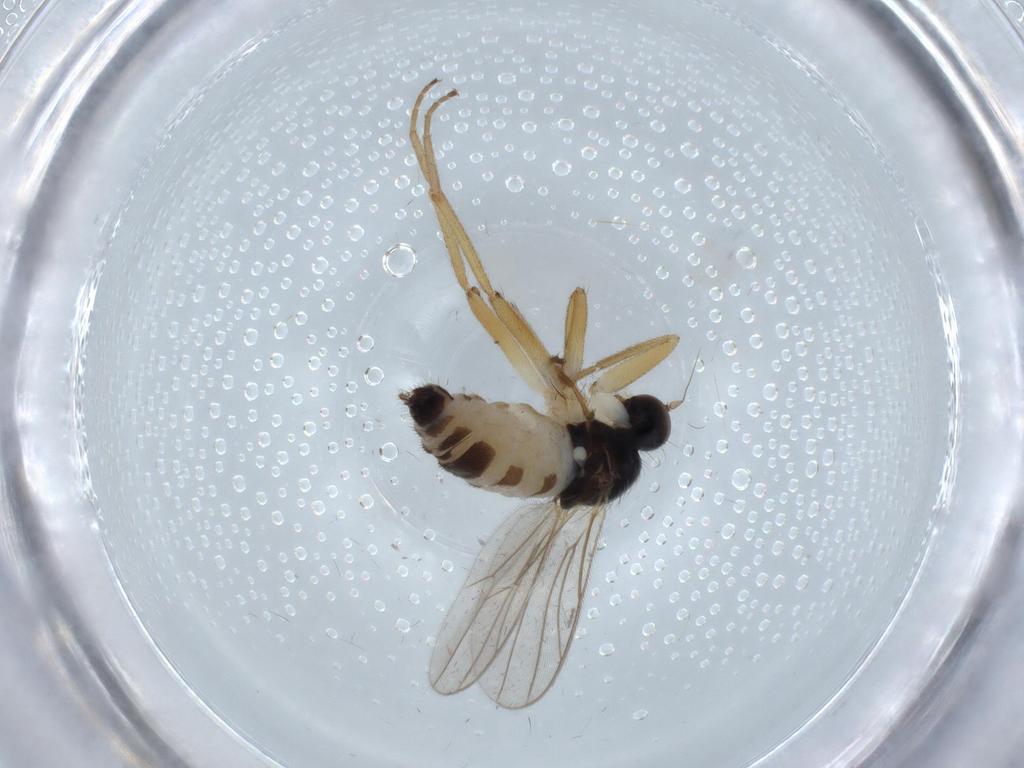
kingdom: Animalia
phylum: Arthropoda
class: Insecta
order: Diptera
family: Hybotidae
